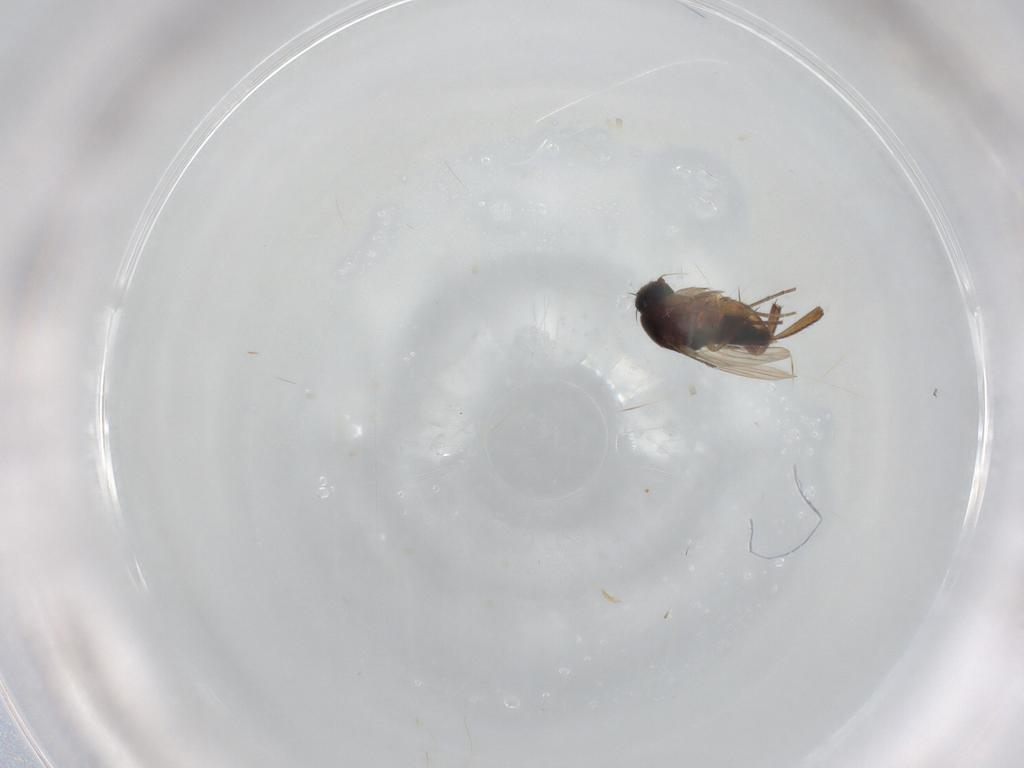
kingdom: Animalia
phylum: Arthropoda
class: Insecta
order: Diptera
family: Phoridae
